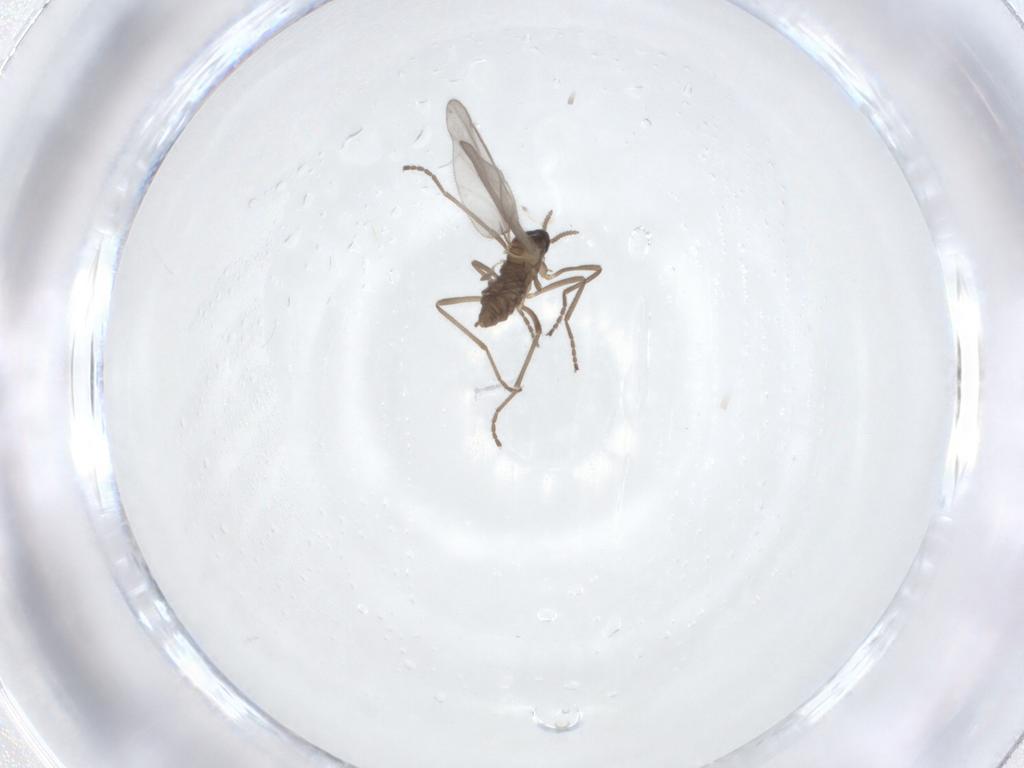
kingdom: Animalia
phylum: Arthropoda
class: Insecta
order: Diptera
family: Cecidomyiidae
